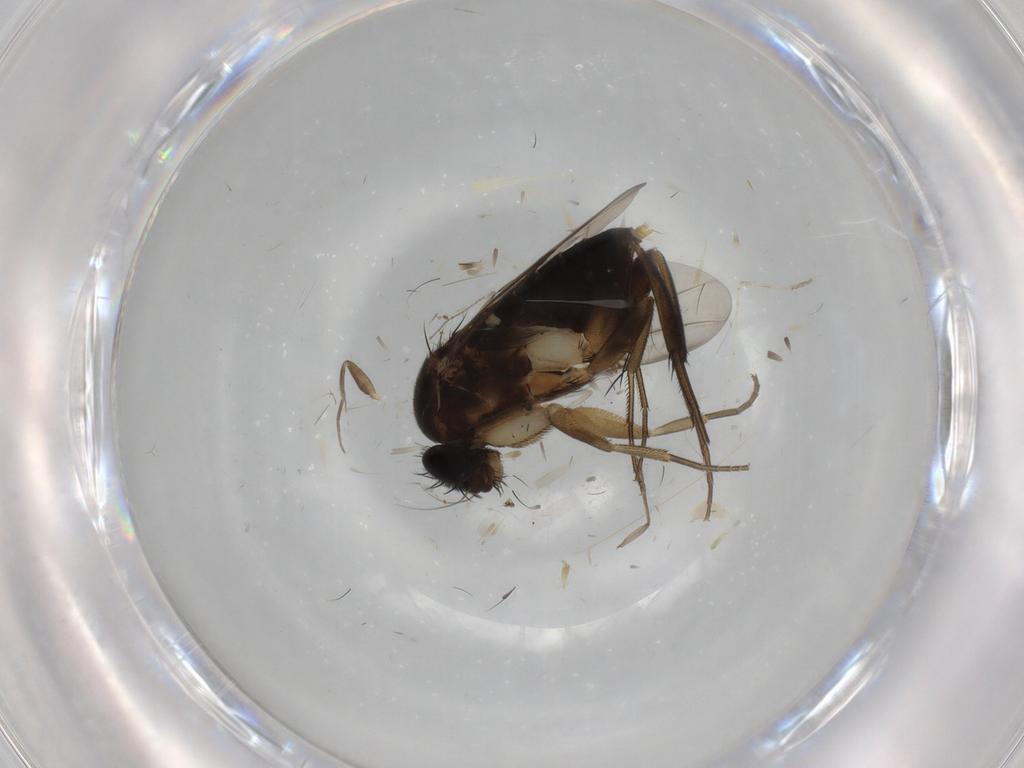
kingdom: Animalia
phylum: Arthropoda
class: Insecta
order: Diptera
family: Phoridae
